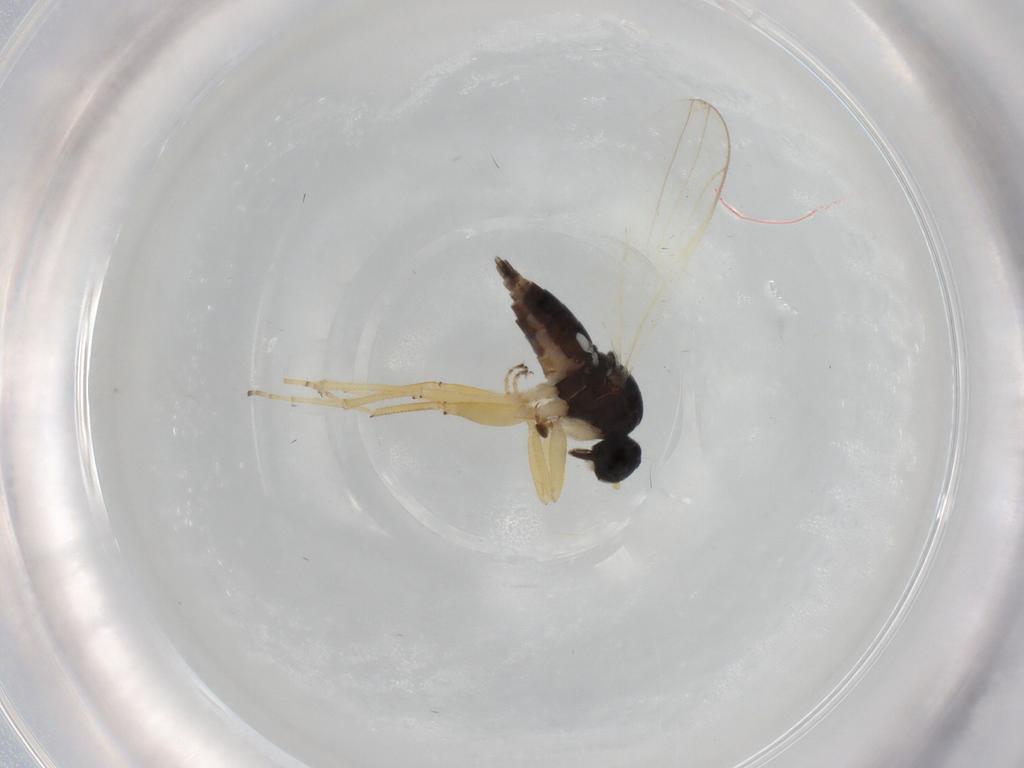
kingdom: Animalia
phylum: Arthropoda
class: Insecta
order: Diptera
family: Hybotidae
